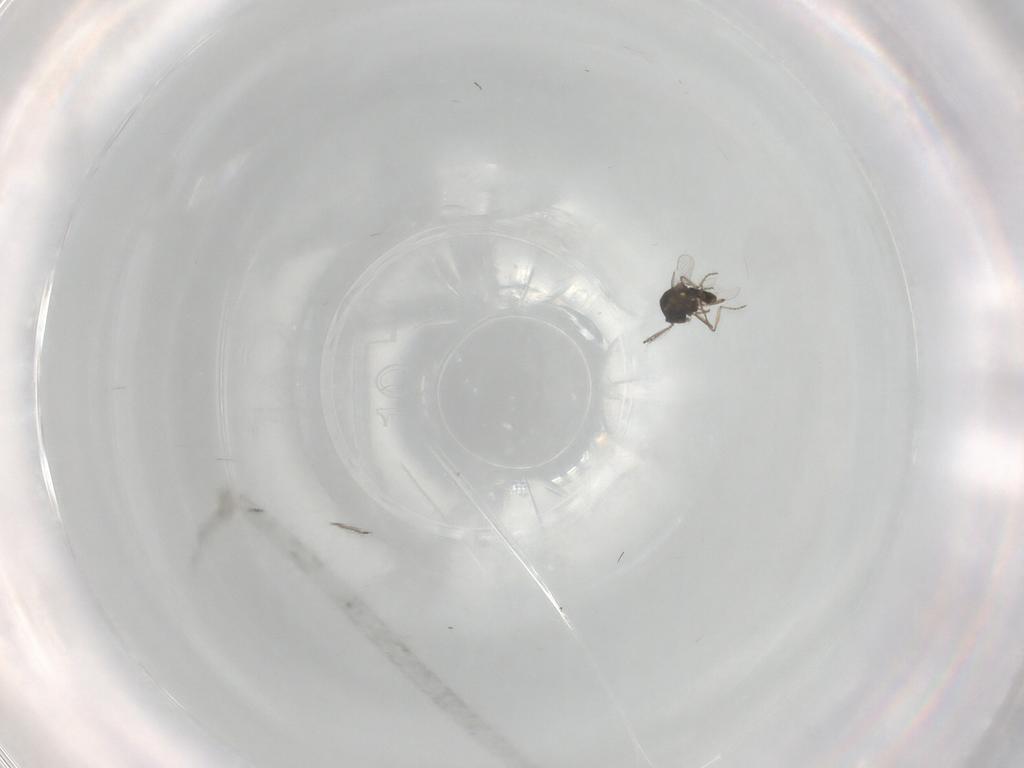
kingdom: Animalia
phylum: Arthropoda
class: Insecta
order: Diptera
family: Ceratopogonidae
